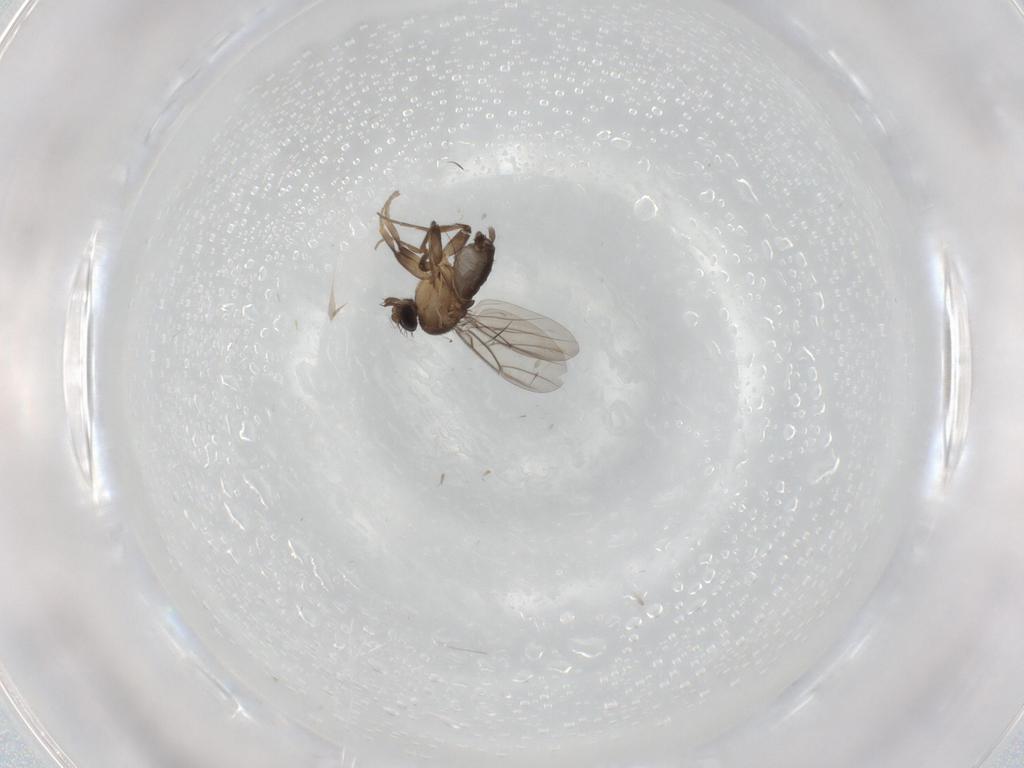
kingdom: Animalia
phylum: Arthropoda
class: Insecta
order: Diptera
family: Phoridae
